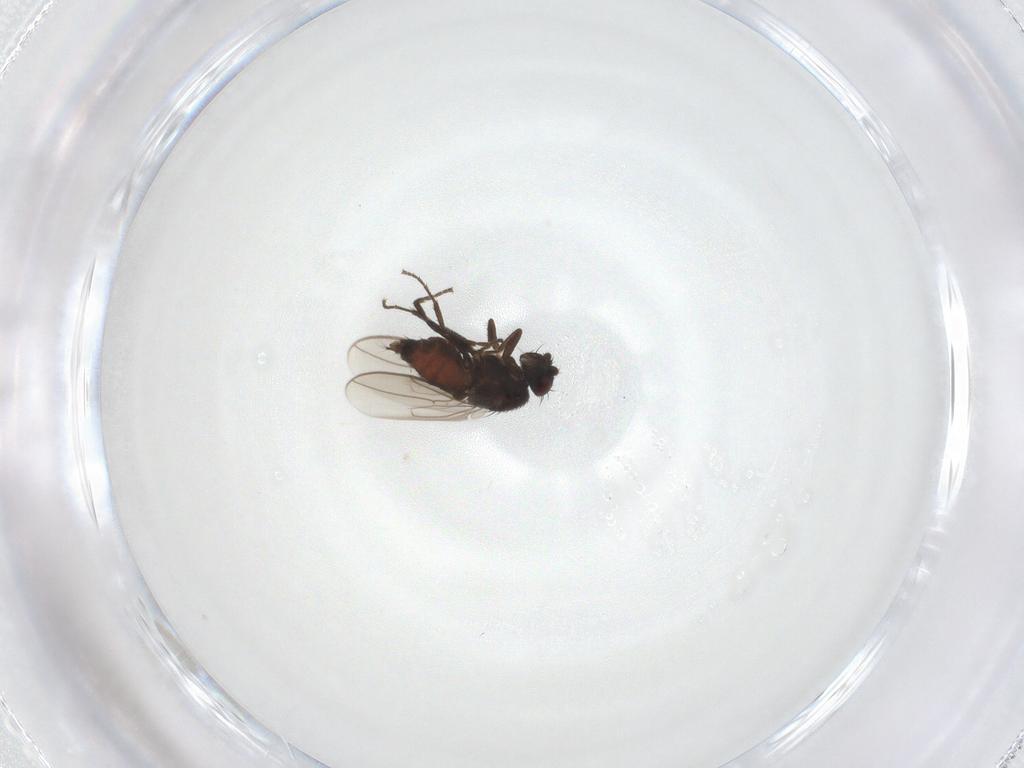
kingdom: Animalia
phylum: Arthropoda
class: Insecta
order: Diptera
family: Sphaeroceridae
